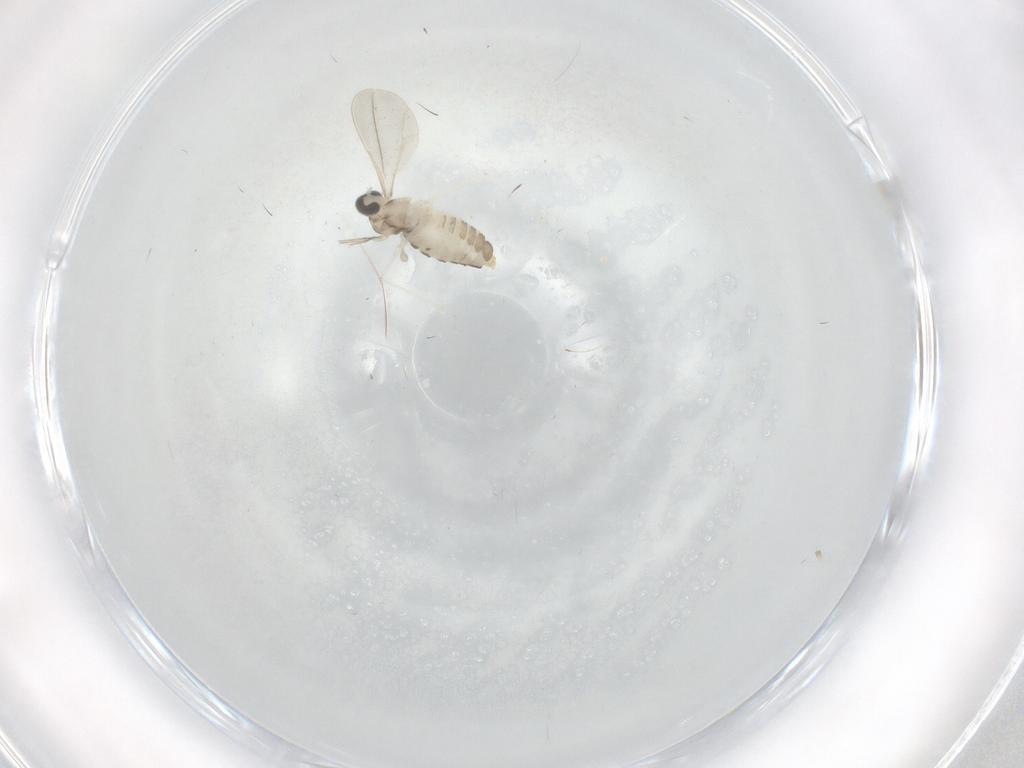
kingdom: Animalia
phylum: Arthropoda
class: Insecta
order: Diptera
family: Cecidomyiidae
